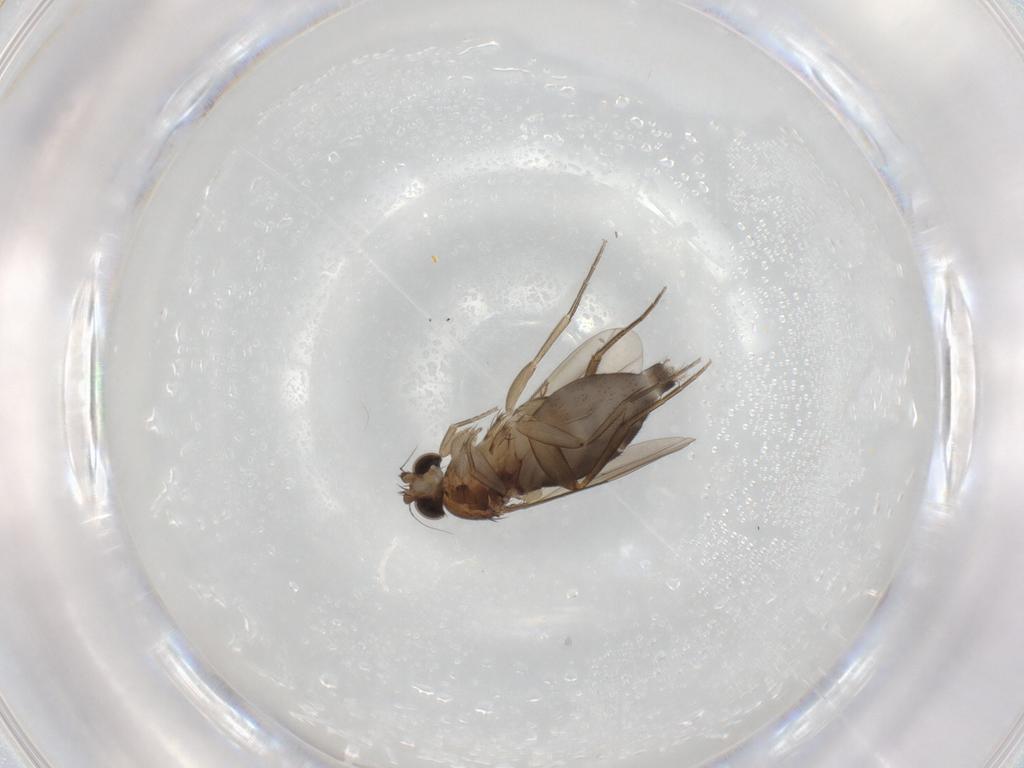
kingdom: Animalia
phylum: Arthropoda
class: Insecta
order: Diptera
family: Phoridae
